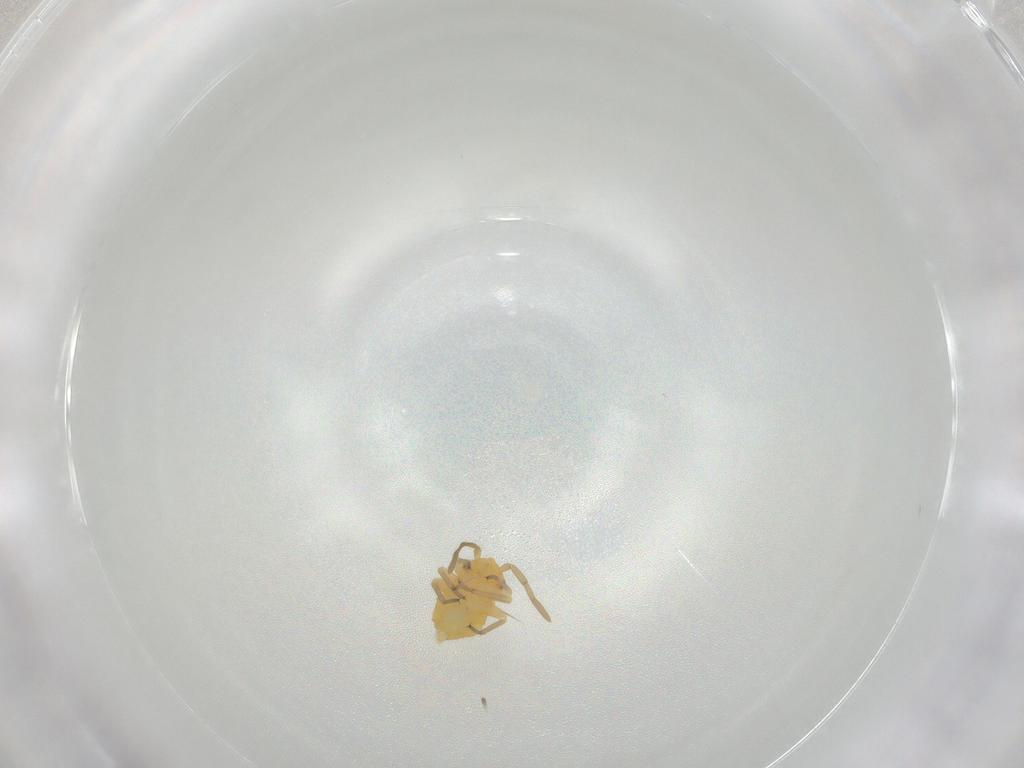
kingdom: Animalia
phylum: Arthropoda
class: Insecta
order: Hemiptera
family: Miridae
